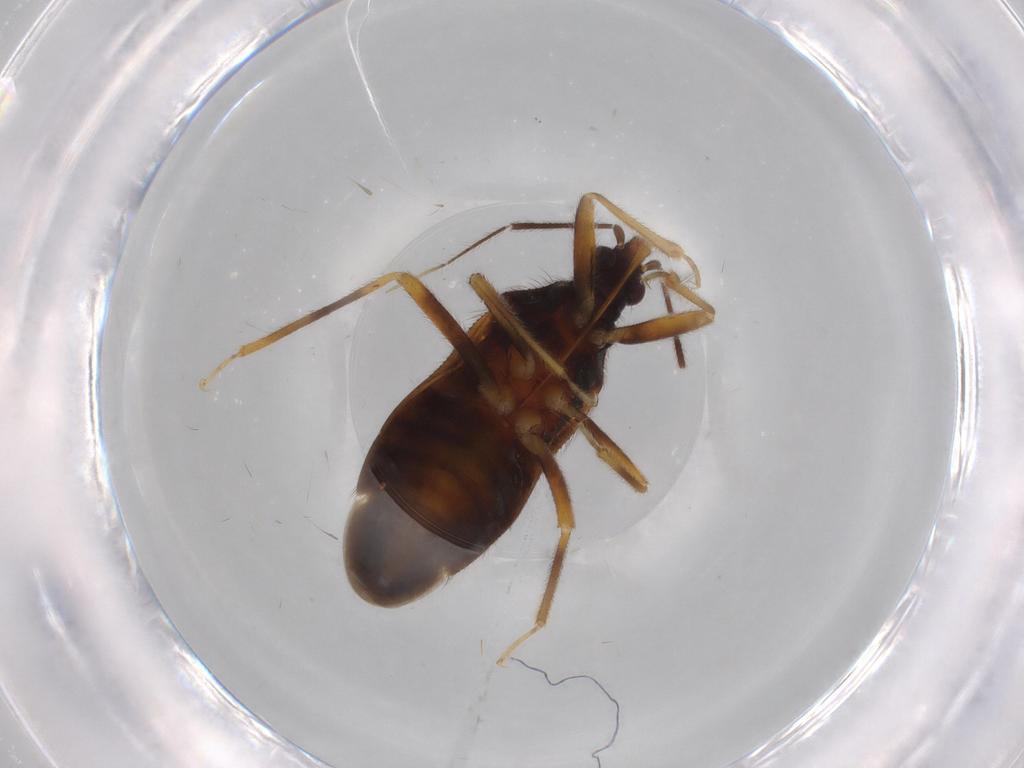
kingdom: Animalia
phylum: Arthropoda
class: Insecta
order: Hemiptera
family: Anthocoridae
